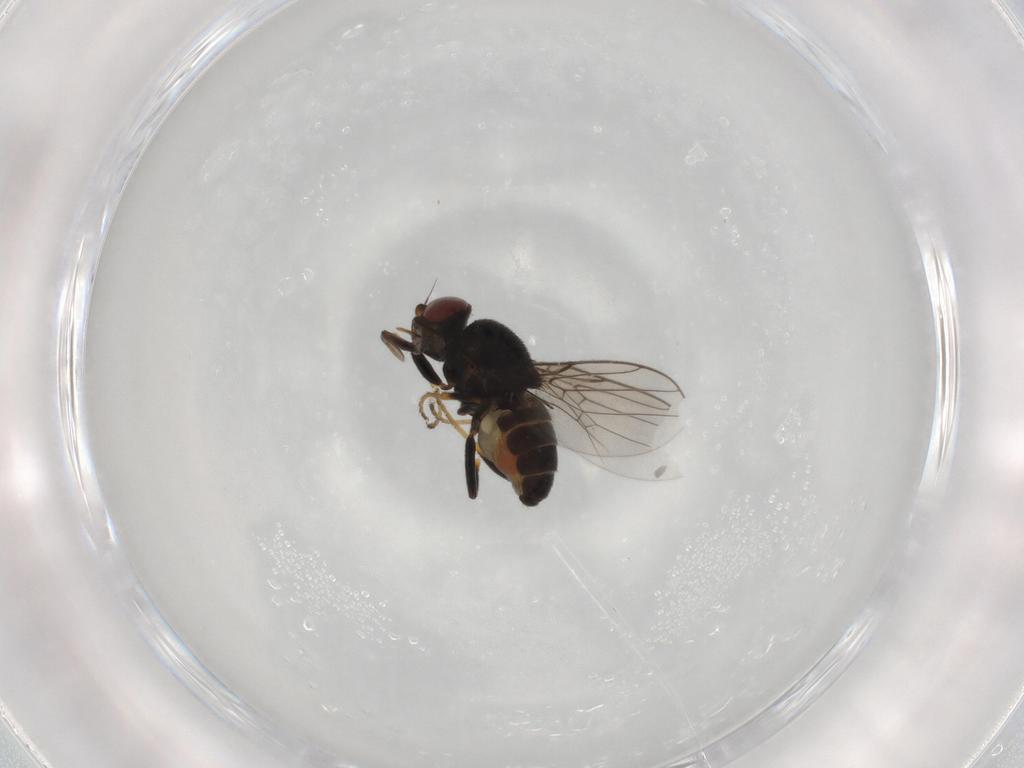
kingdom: Animalia
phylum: Arthropoda
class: Insecta
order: Diptera
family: Chloropidae
